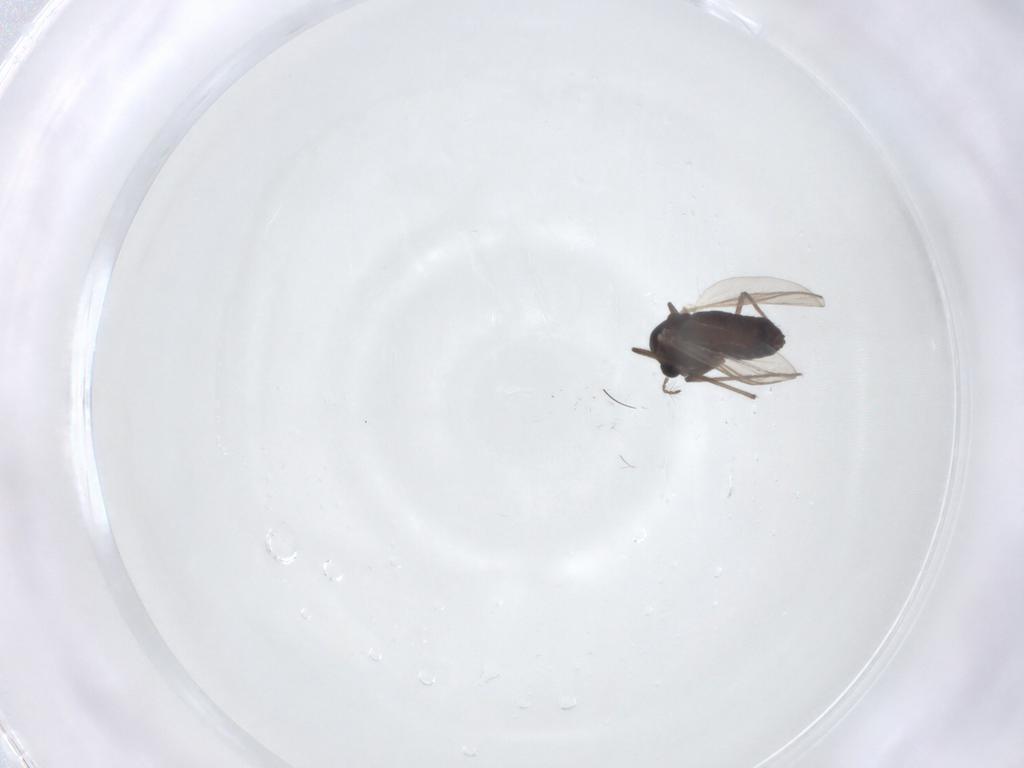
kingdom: Animalia
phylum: Arthropoda
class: Insecta
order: Diptera
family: Chironomidae
